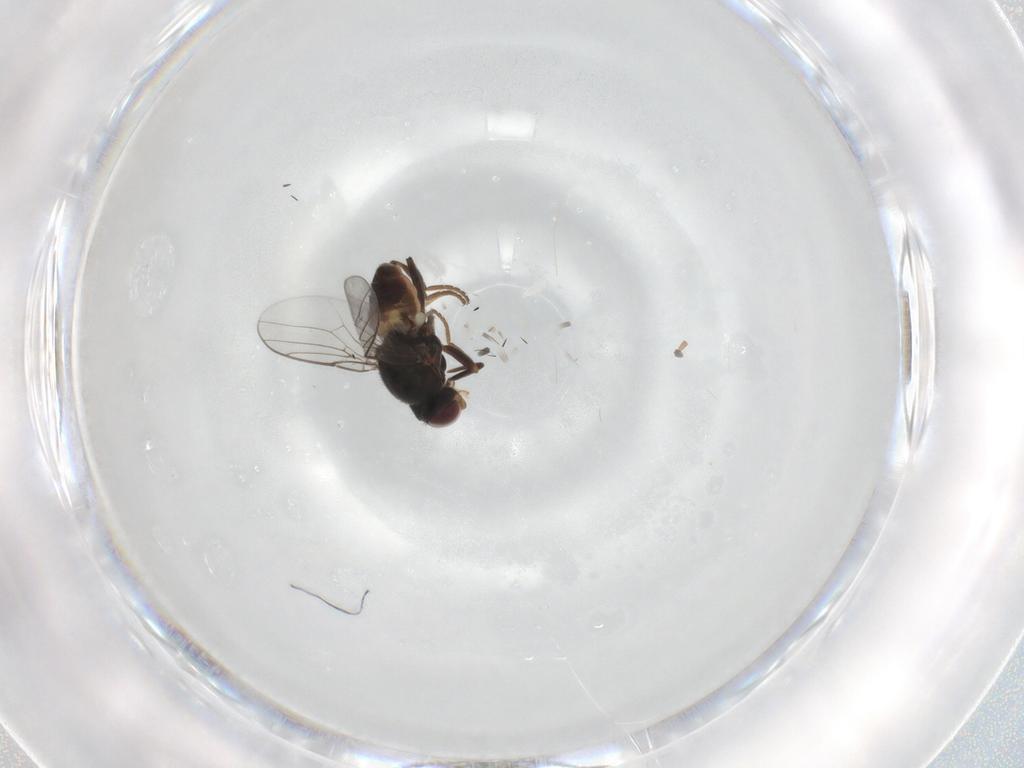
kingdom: Animalia
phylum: Arthropoda
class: Insecta
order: Diptera
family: Chloropidae
